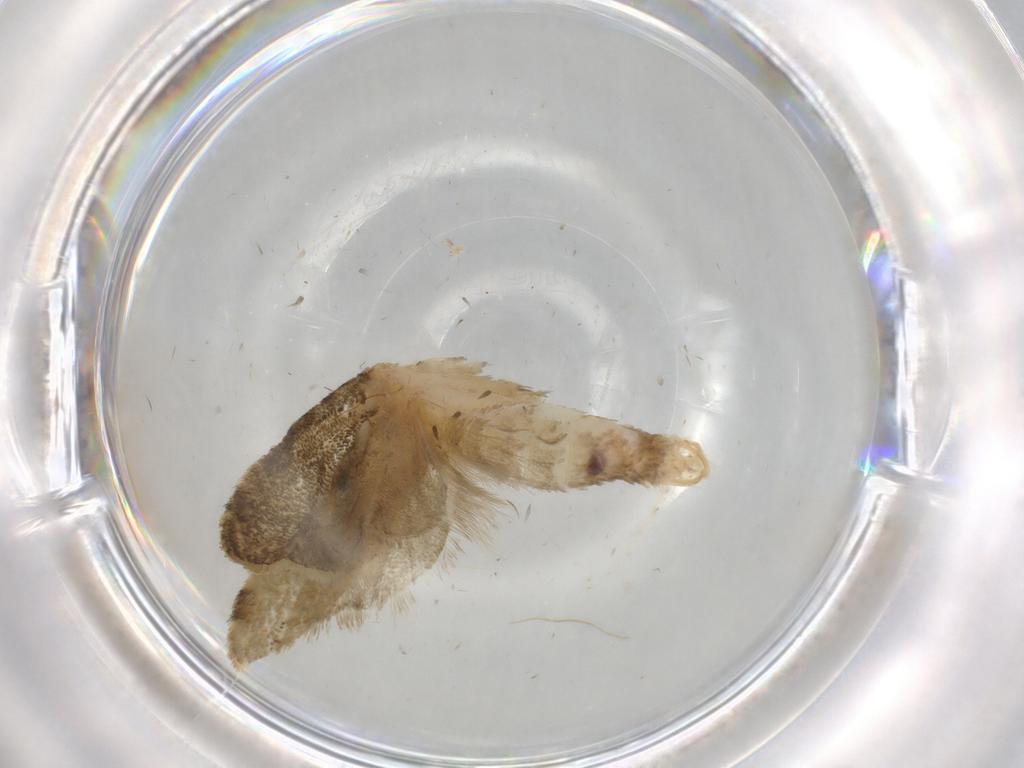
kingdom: Animalia
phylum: Arthropoda
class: Insecta
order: Lepidoptera
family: Tortricidae
